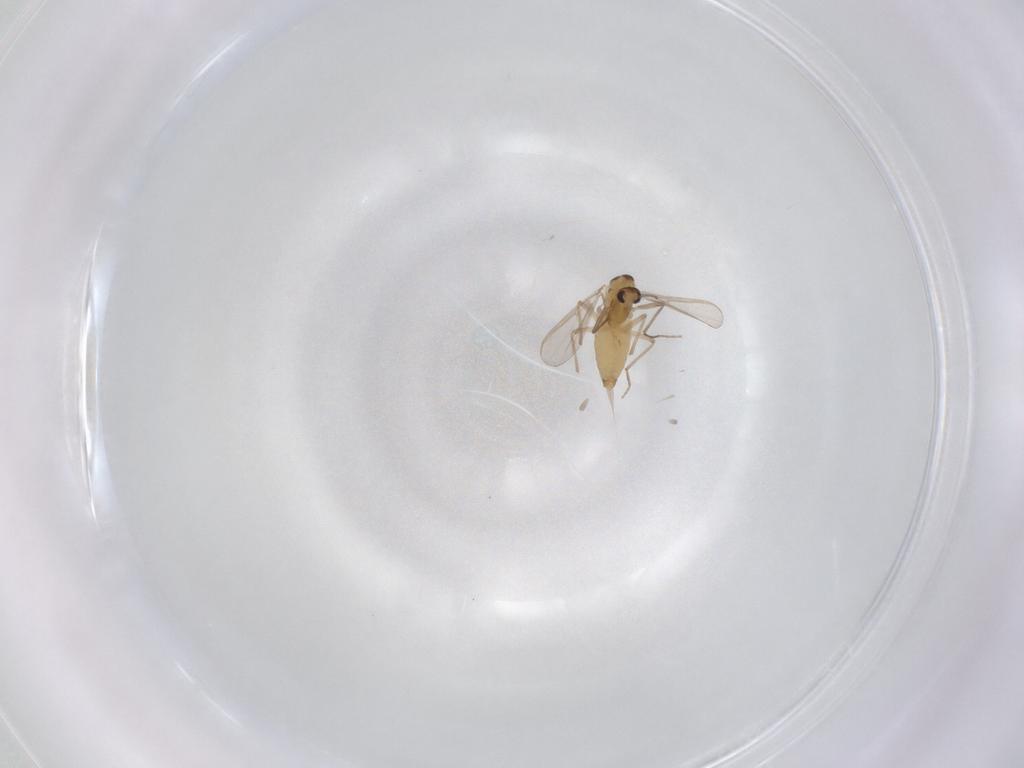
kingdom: Animalia
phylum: Arthropoda
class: Insecta
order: Diptera
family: Chironomidae
